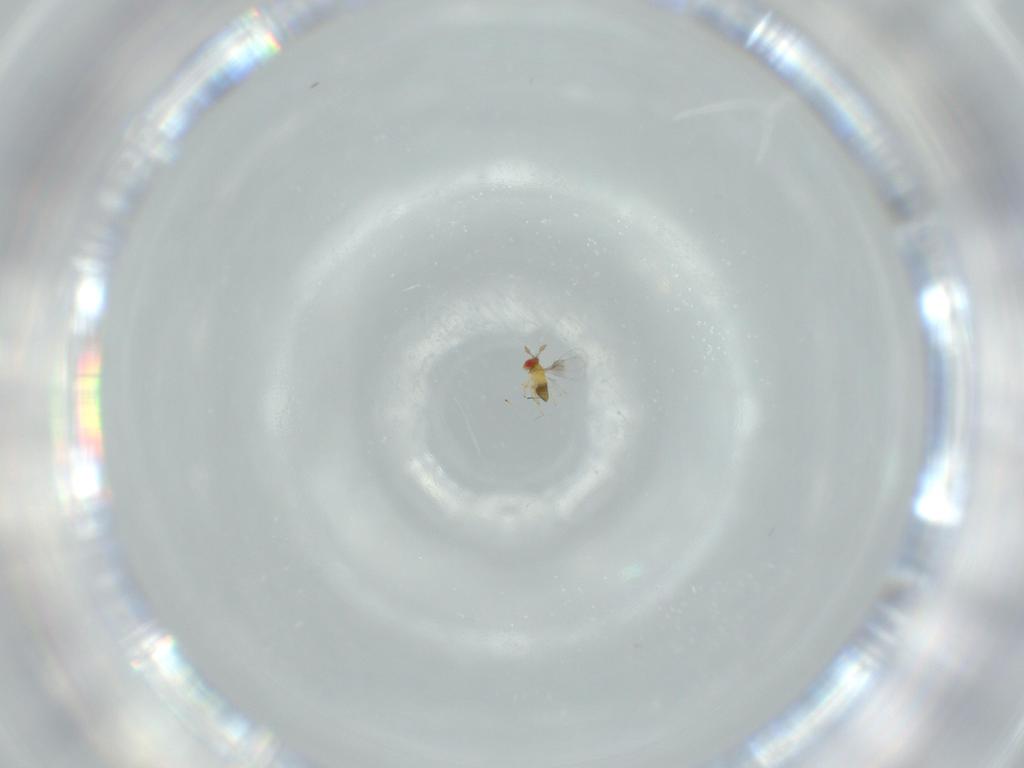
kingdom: Animalia
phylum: Arthropoda
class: Insecta
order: Hymenoptera
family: Trichogrammatidae
